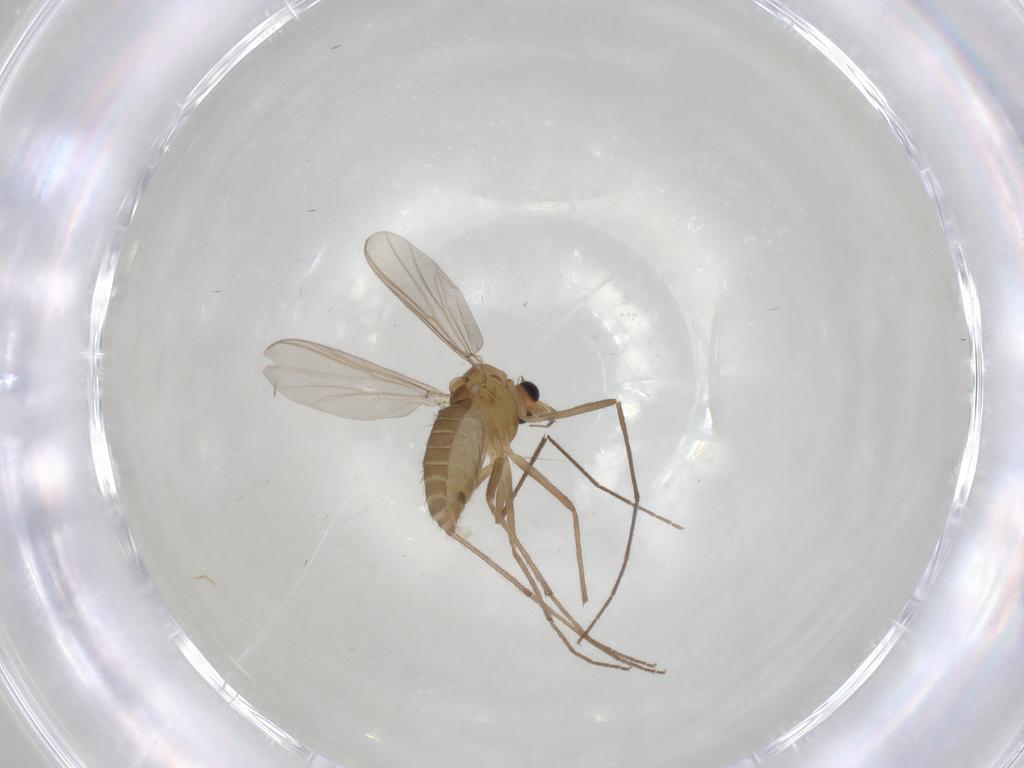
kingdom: Animalia
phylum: Arthropoda
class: Insecta
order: Diptera
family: Chironomidae
